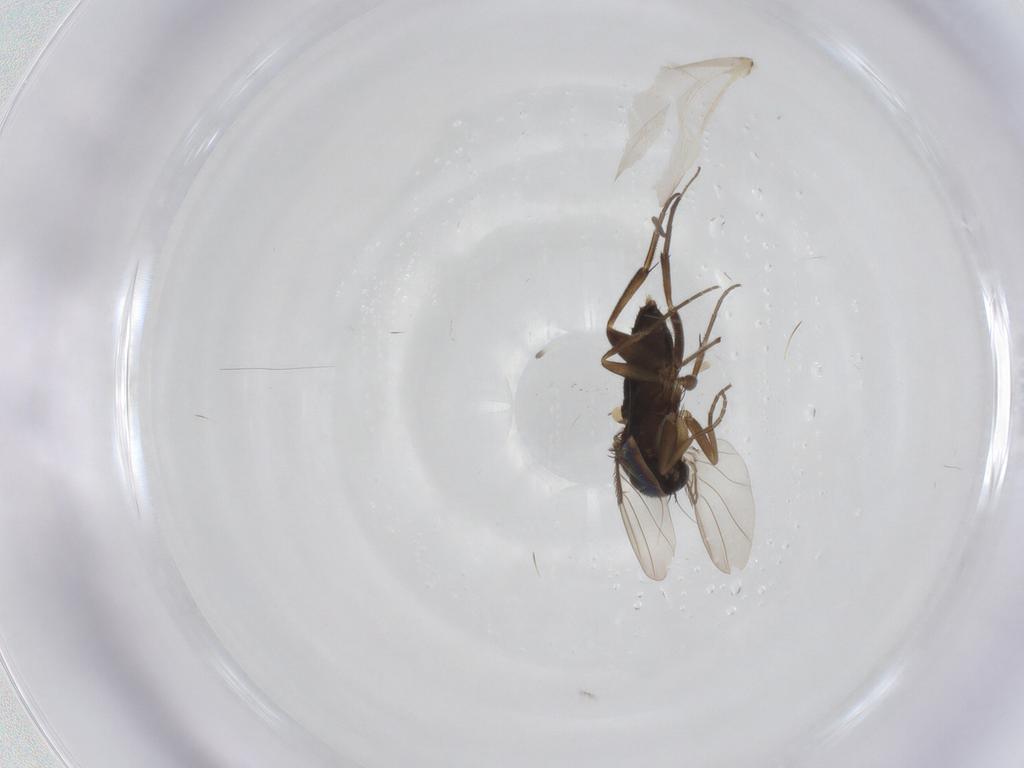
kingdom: Animalia
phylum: Arthropoda
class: Insecta
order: Diptera
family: Phoridae
